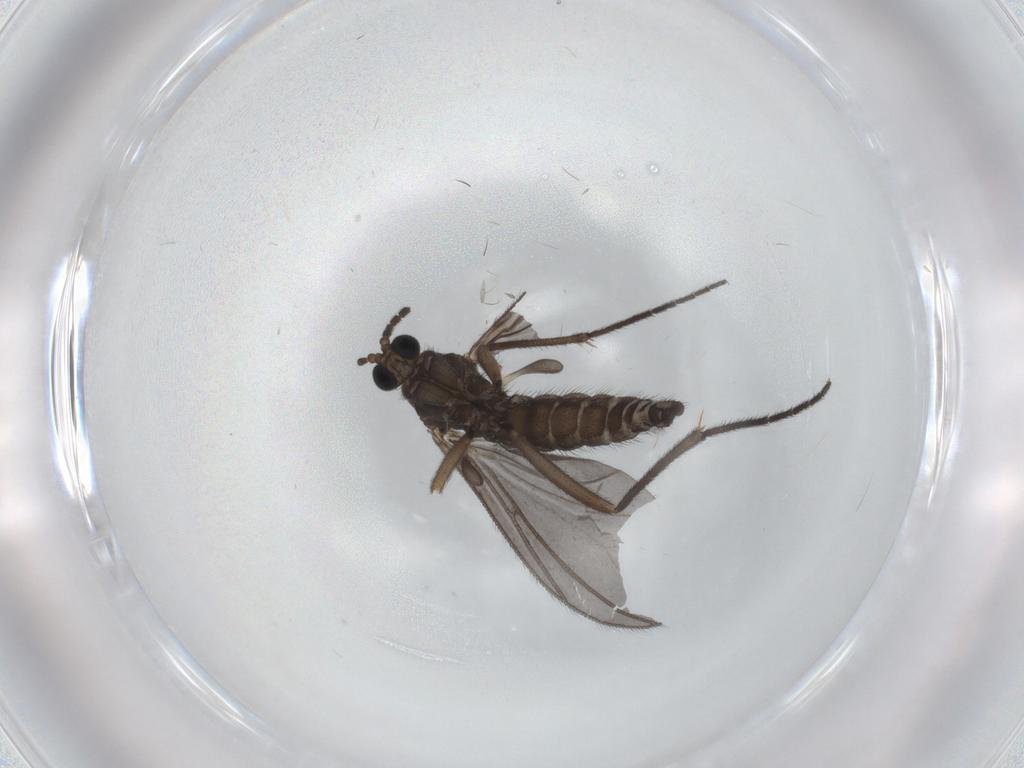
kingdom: Animalia
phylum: Arthropoda
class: Insecta
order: Diptera
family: Sciaridae
